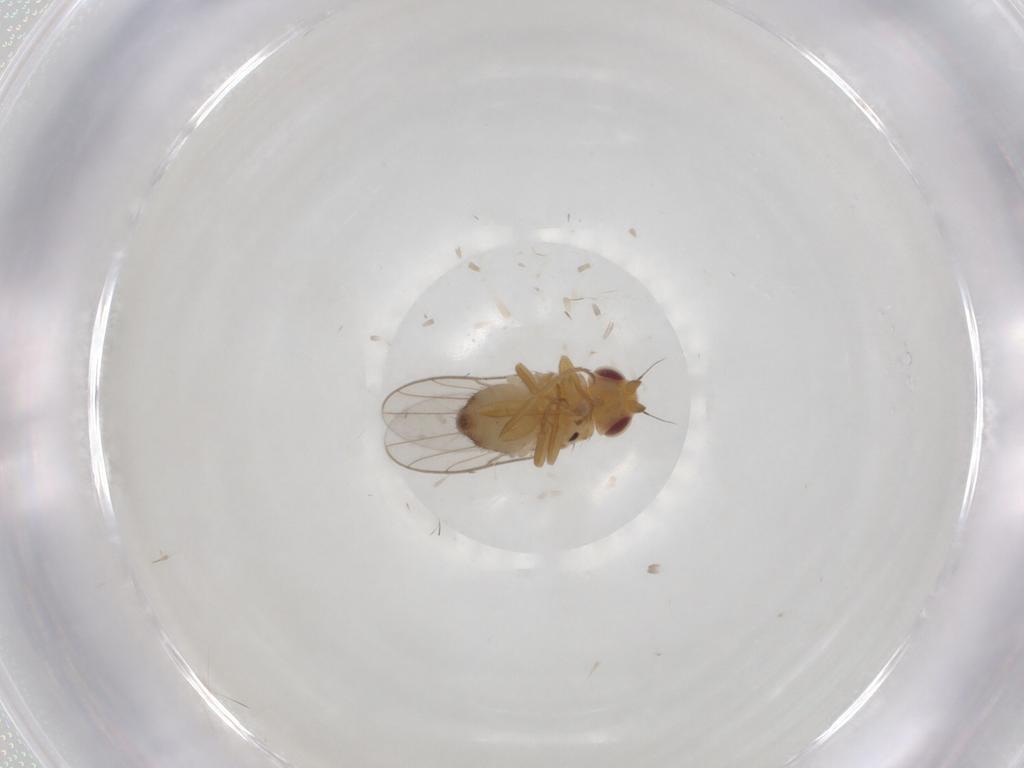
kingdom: Animalia
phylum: Arthropoda
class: Insecta
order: Diptera
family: Chloropidae
